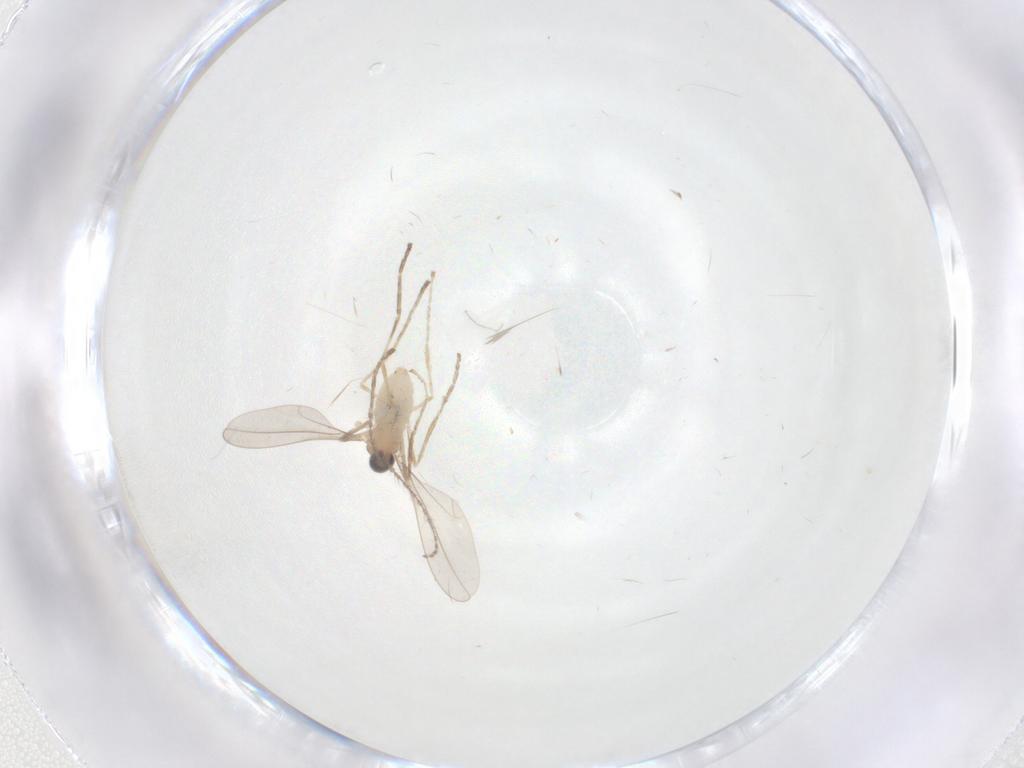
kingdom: Animalia
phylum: Arthropoda
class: Insecta
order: Diptera
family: Cecidomyiidae
